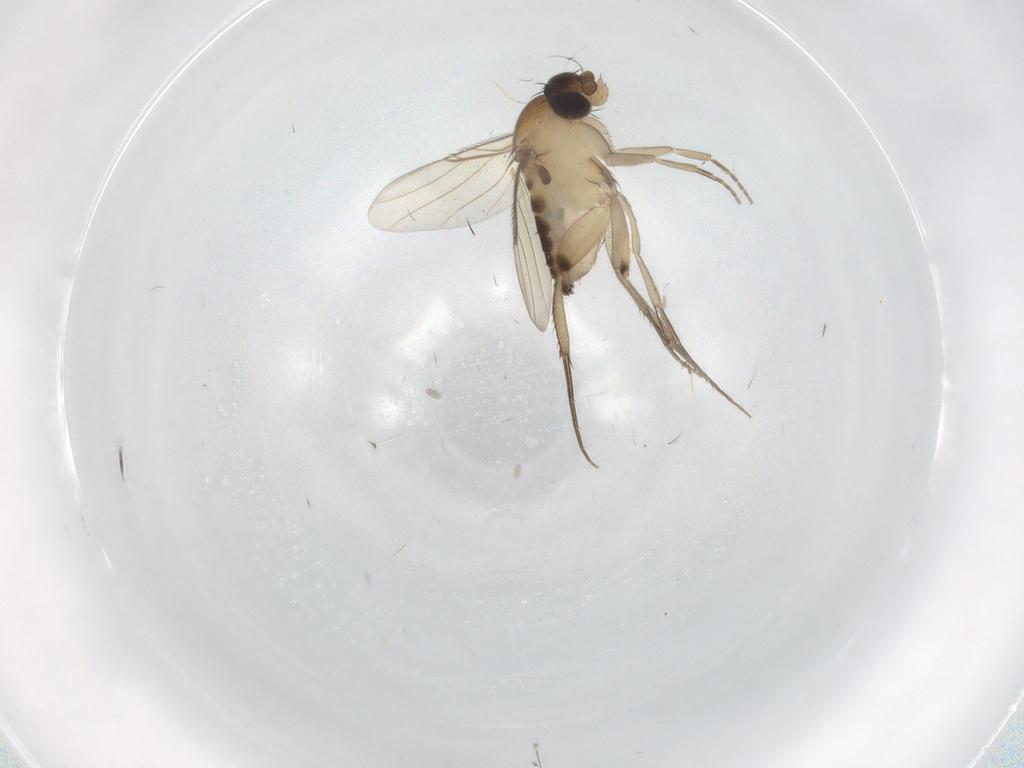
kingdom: Animalia
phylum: Arthropoda
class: Insecta
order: Diptera
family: Phoridae
